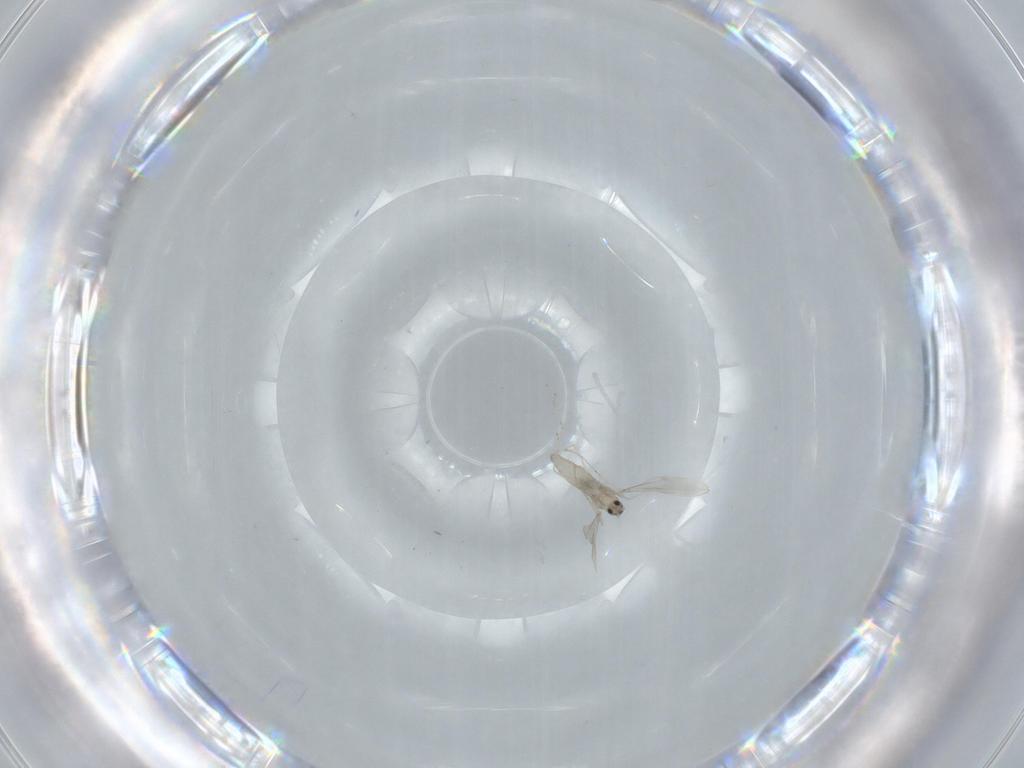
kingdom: Animalia
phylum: Arthropoda
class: Insecta
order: Diptera
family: Cecidomyiidae
